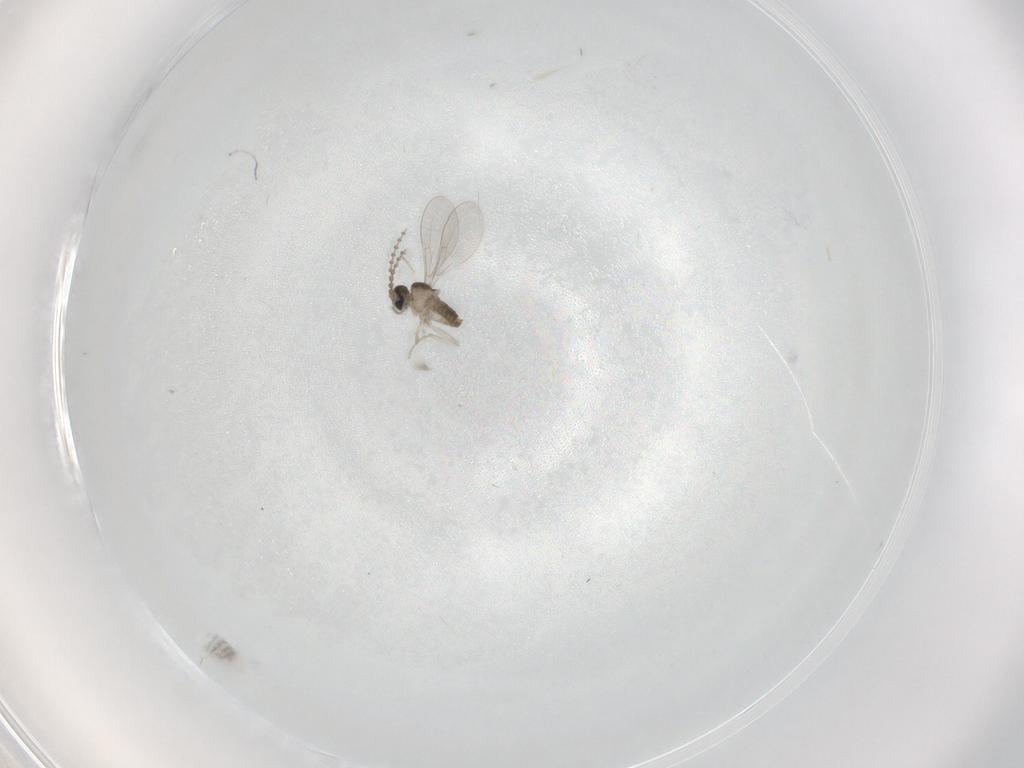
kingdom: Animalia
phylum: Arthropoda
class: Insecta
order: Diptera
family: Cecidomyiidae
